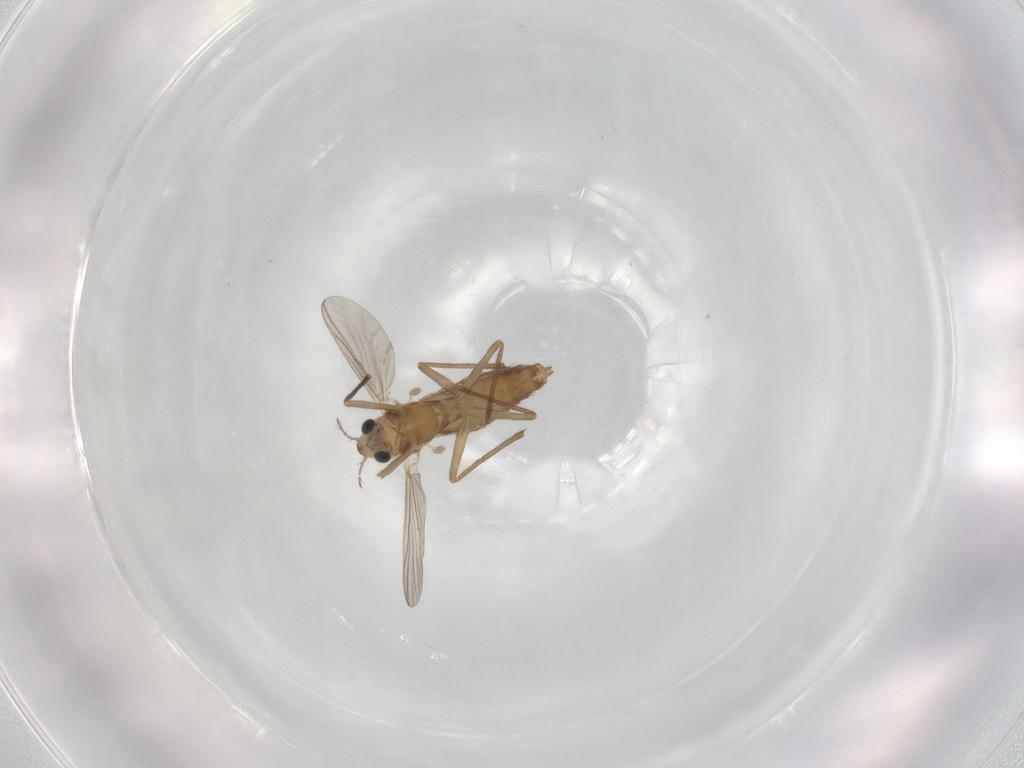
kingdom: Animalia
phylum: Arthropoda
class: Insecta
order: Diptera
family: Chironomidae
